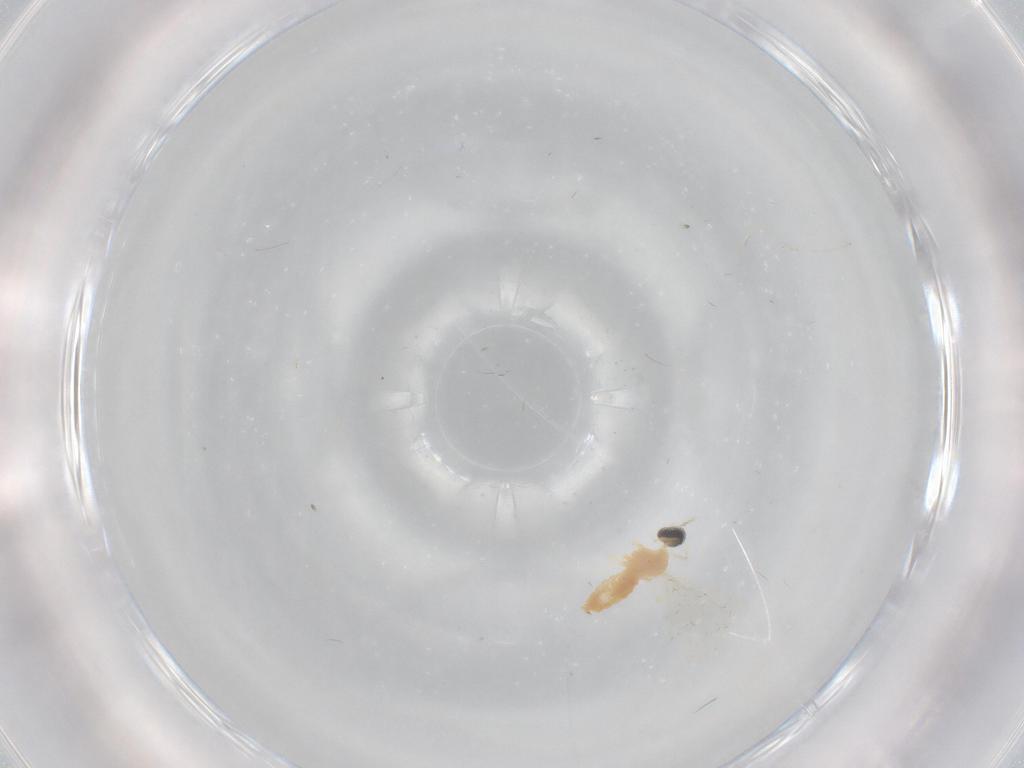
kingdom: Animalia
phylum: Arthropoda
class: Insecta
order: Diptera
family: Cecidomyiidae
